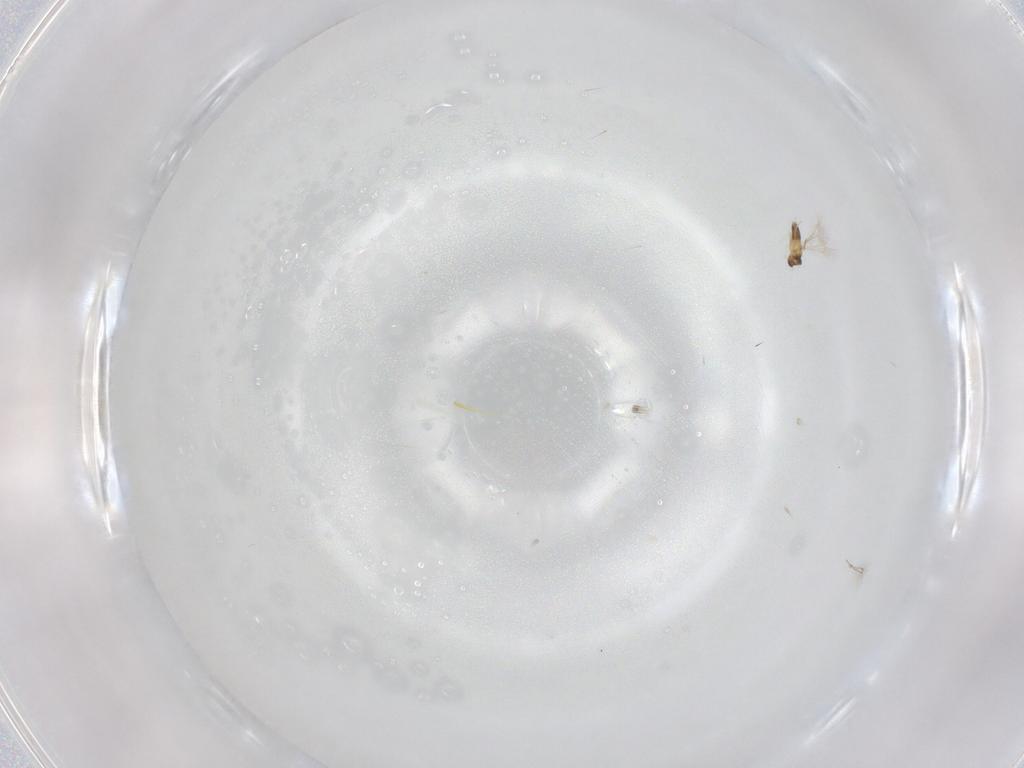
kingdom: Animalia
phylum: Arthropoda
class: Insecta
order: Hymenoptera
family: Mymaridae
